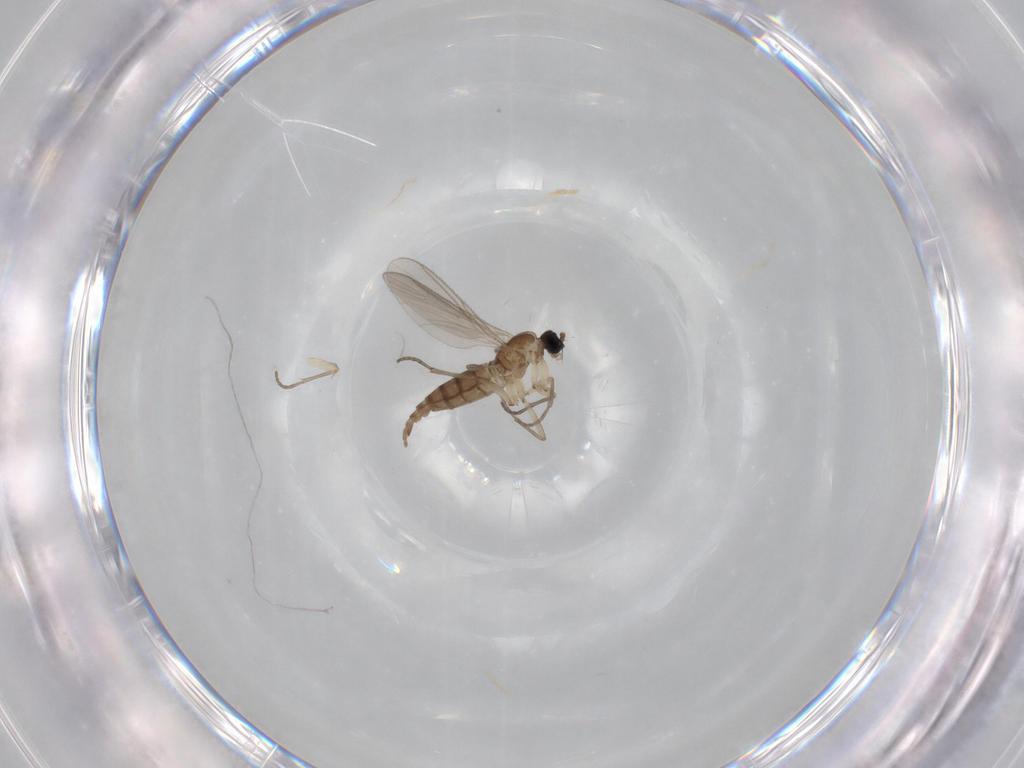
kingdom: Animalia
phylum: Arthropoda
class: Insecta
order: Diptera
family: Sciaridae
